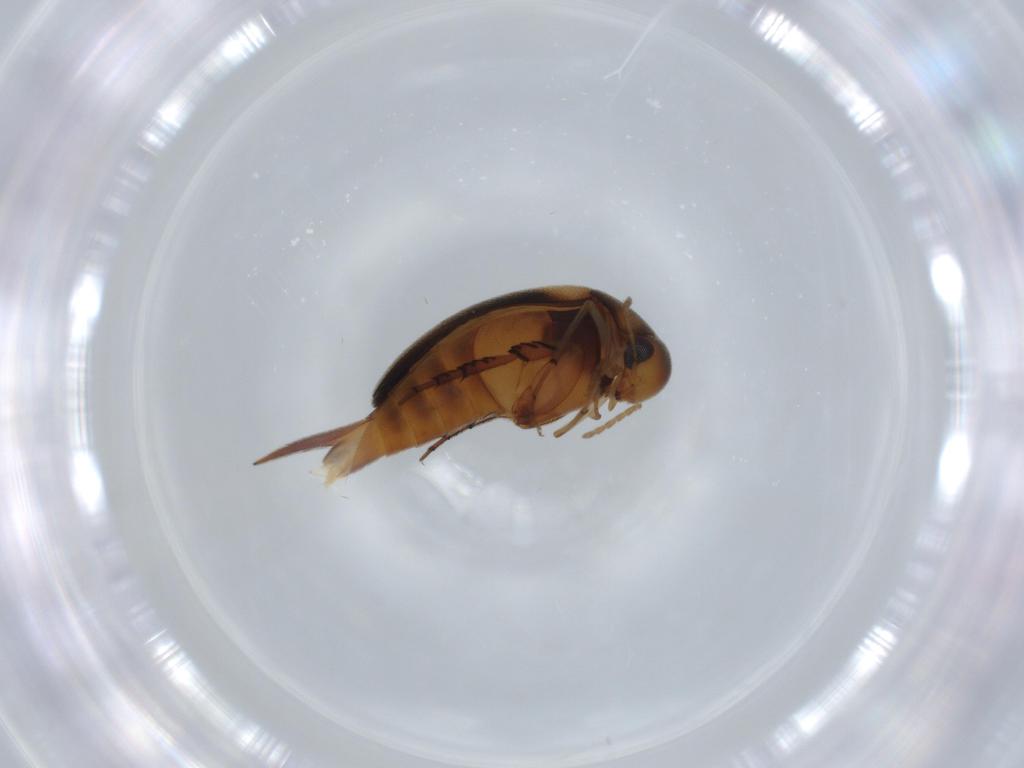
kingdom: Animalia
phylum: Arthropoda
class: Insecta
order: Coleoptera
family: Mordellidae
